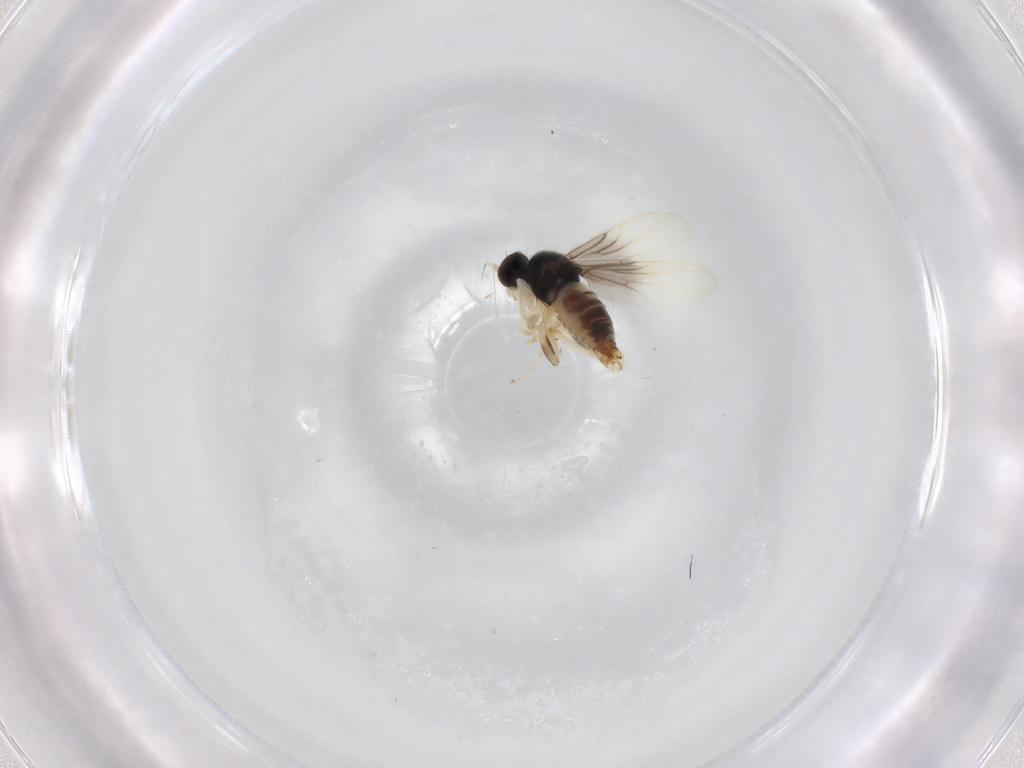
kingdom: Animalia
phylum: Arthropoda
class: Insecta
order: Diptera
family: Hybotidae
